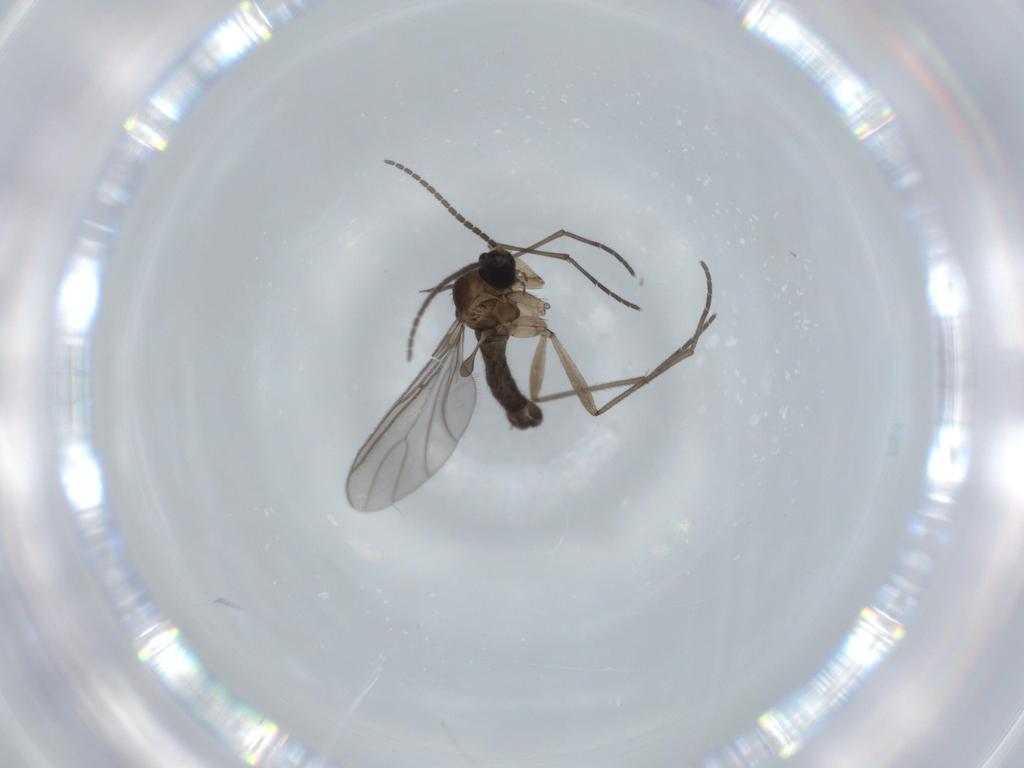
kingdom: Animalia
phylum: Arthropoda
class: Insecta
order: Diptera
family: Sciaridae
